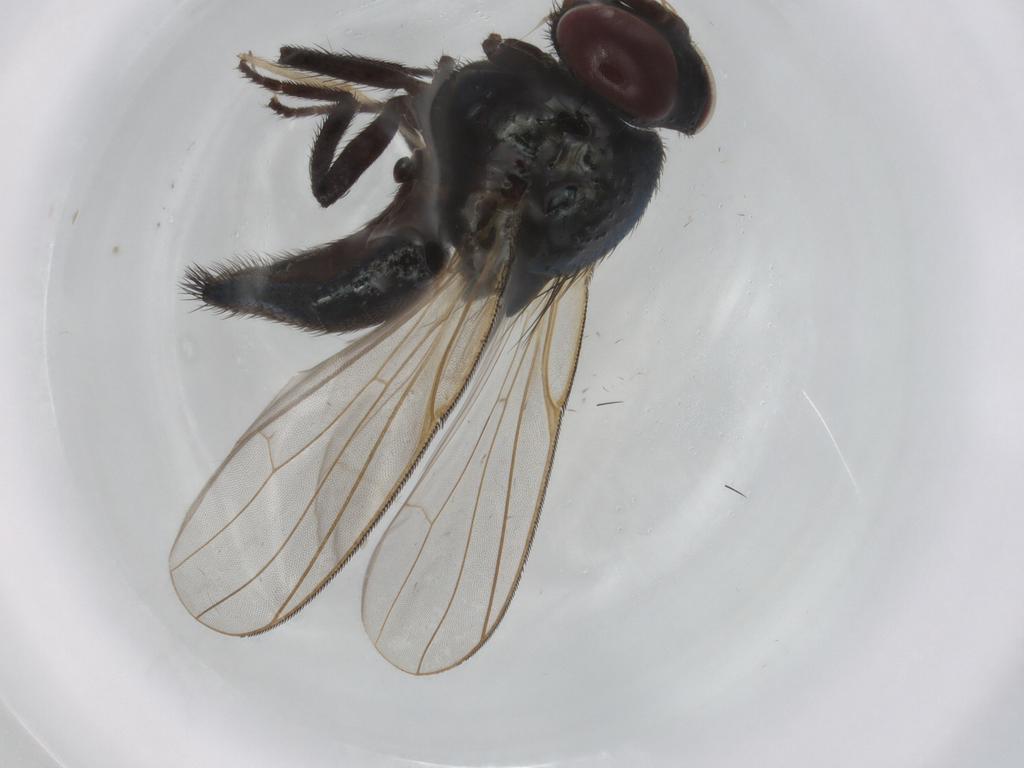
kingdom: Animalia
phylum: Arthropoda
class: Insecta
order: Diptera
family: Lonchaeidae
